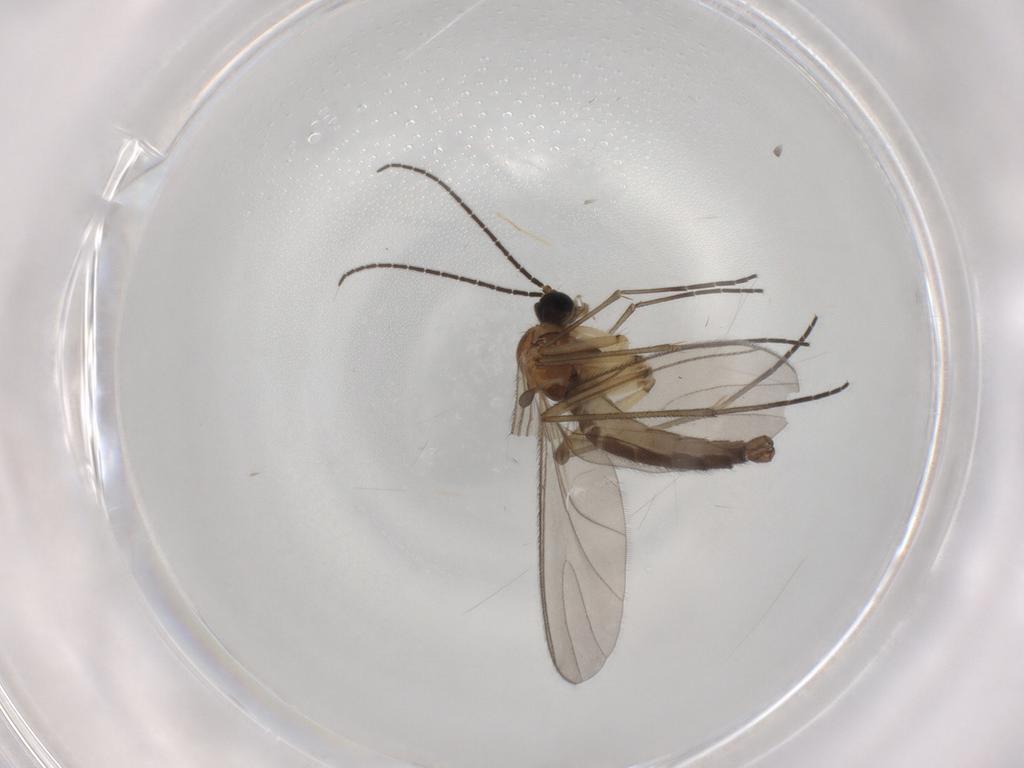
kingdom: Animalia
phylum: Arthropoda
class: Insecta
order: Diptera
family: Sciaridae
